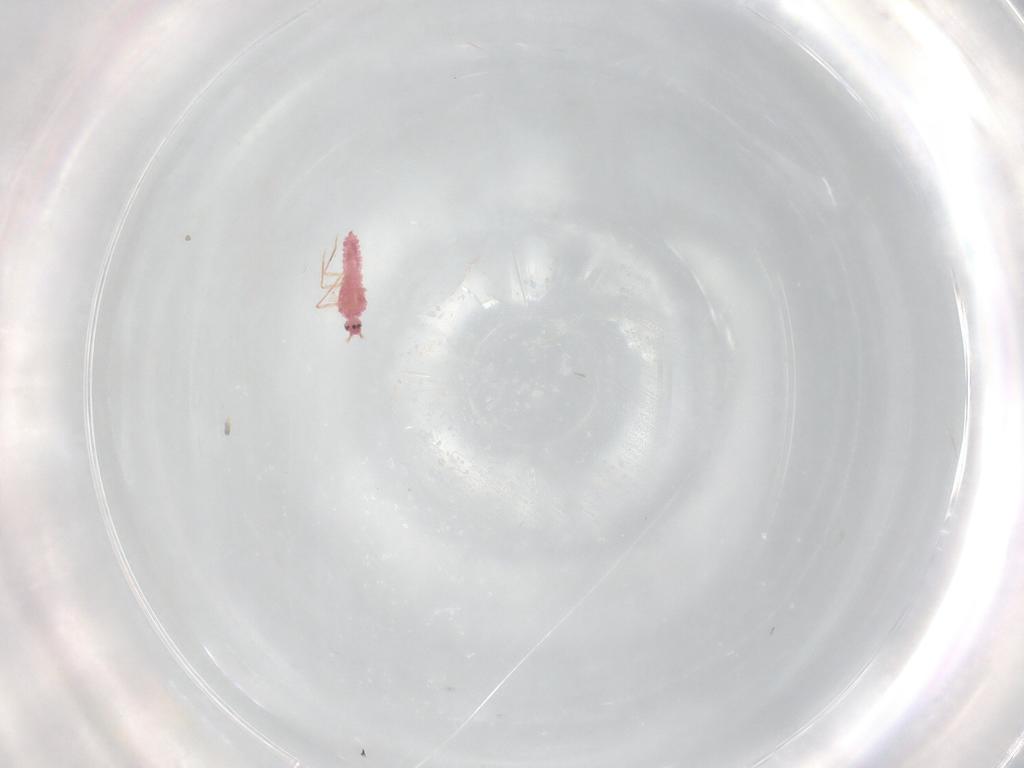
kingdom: Animalia
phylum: Arthropoda
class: Insecta
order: Hemiptera
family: Pseudococcidae
